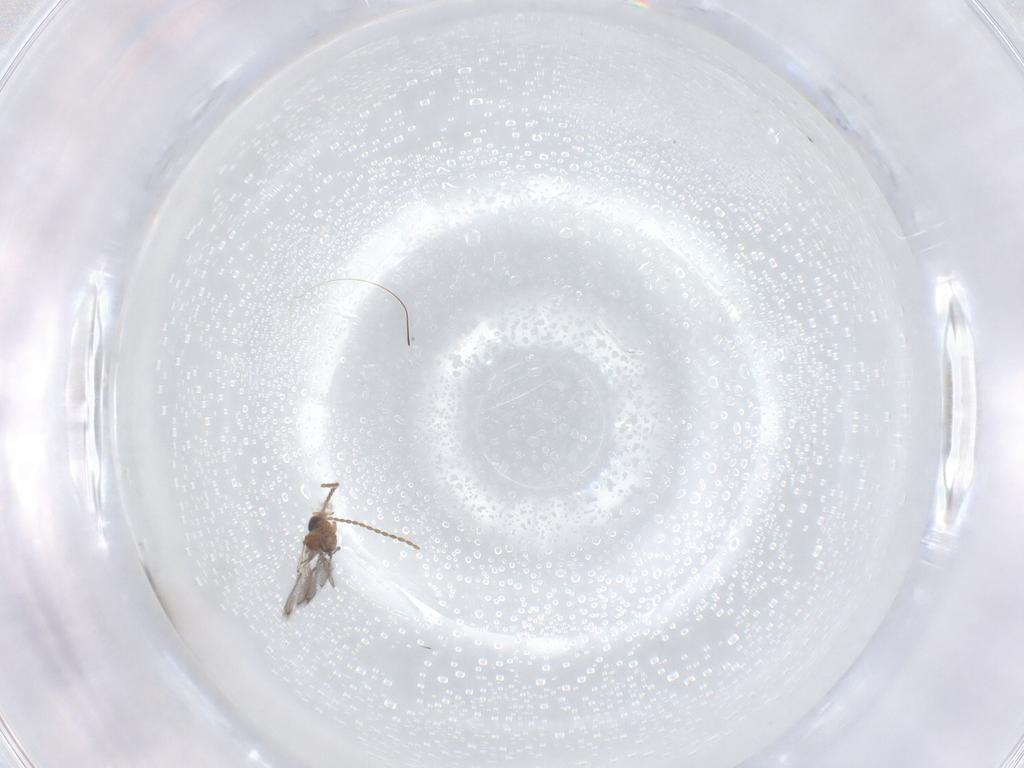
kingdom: Animalia
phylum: Arthropoda
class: Insecta
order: Hymenoptera
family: Figitidae
